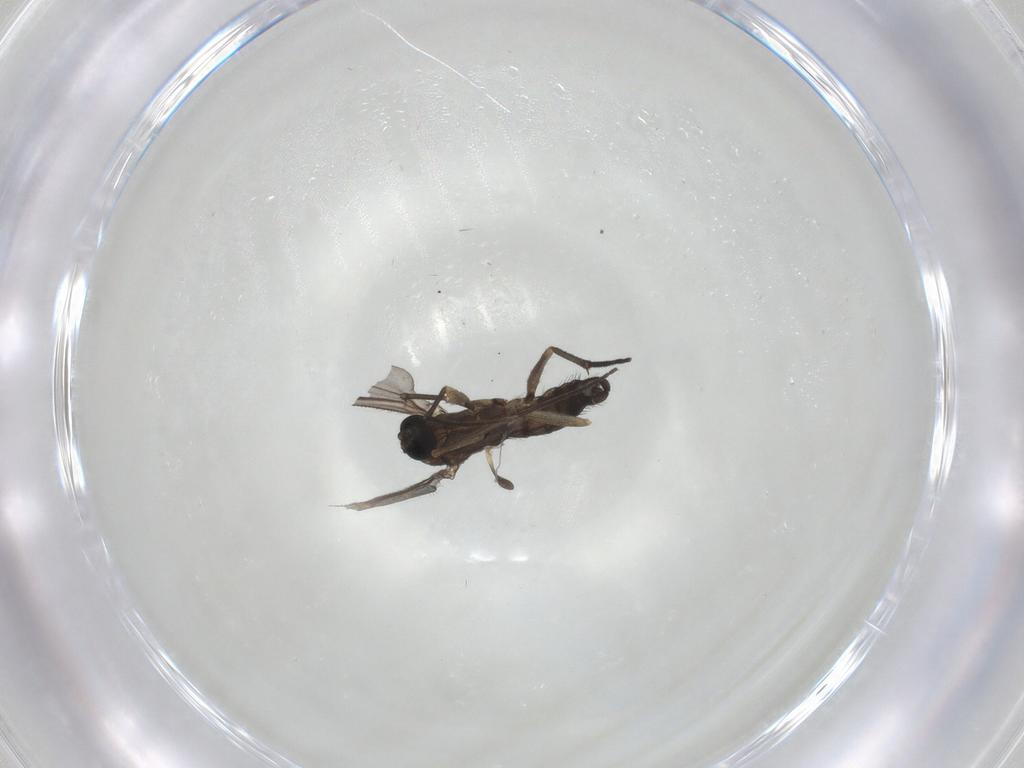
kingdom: Animalia
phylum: Arthropoda
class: Insecta
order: Diptera
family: Sciaridae
